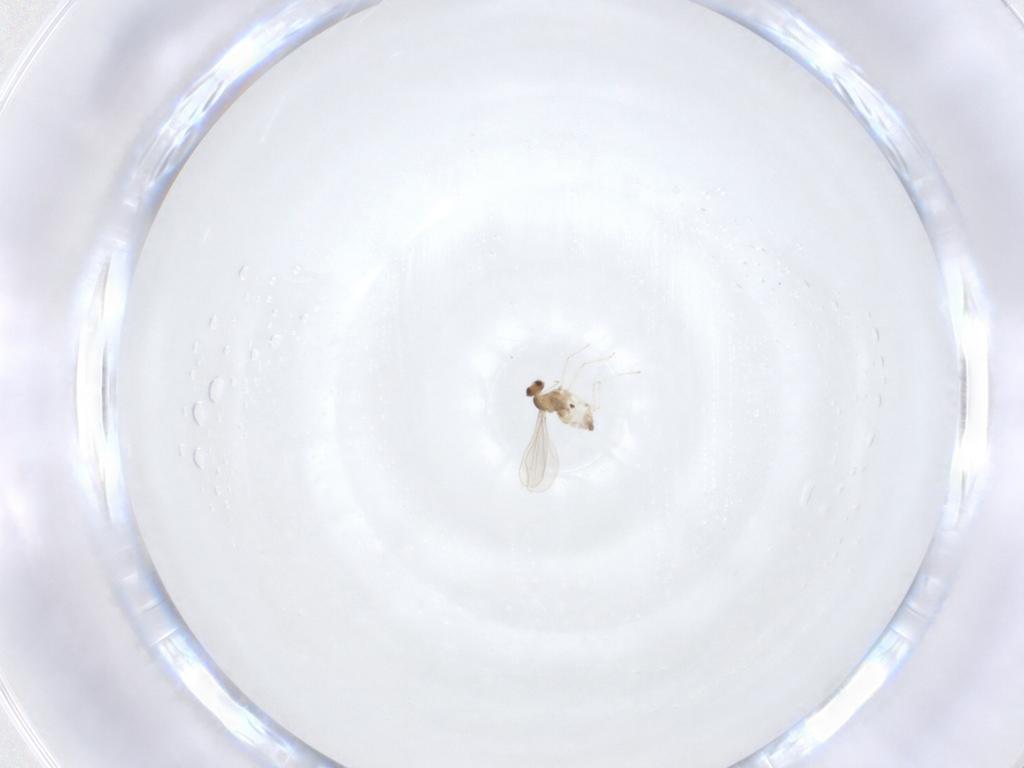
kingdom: Animalia
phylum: Arthropoda
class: Insecta
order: Diptera
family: Cecidomyiidae
